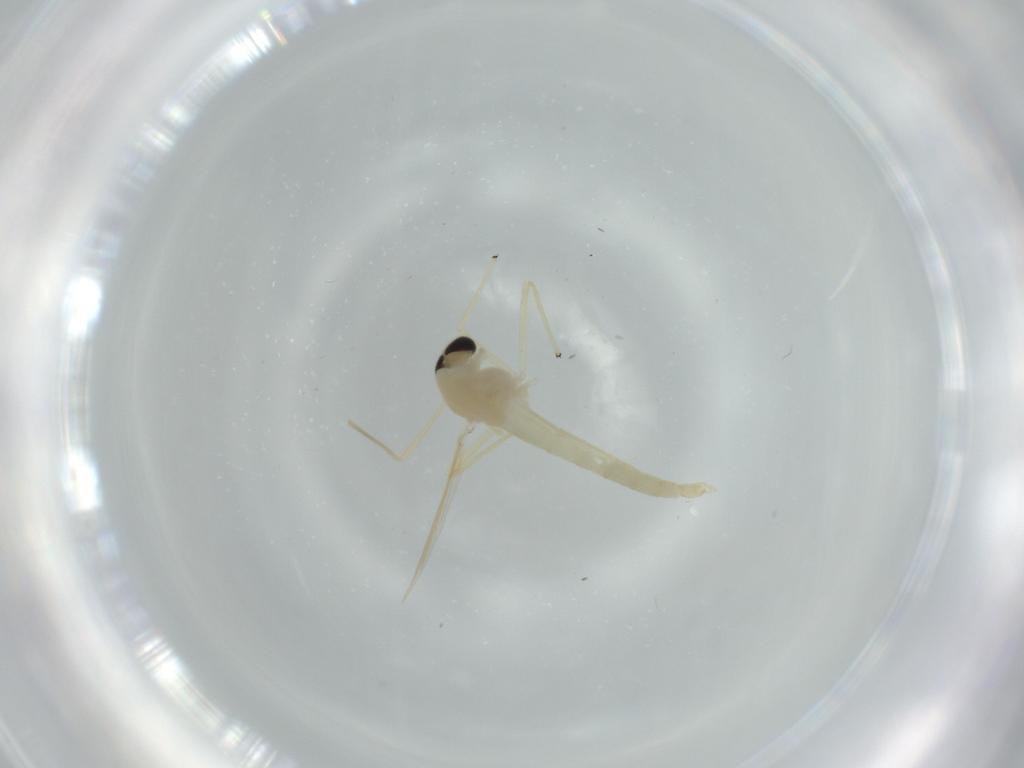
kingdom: Animalia
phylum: Arthropoda
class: Insecta
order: Diptera
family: Chironomidae
